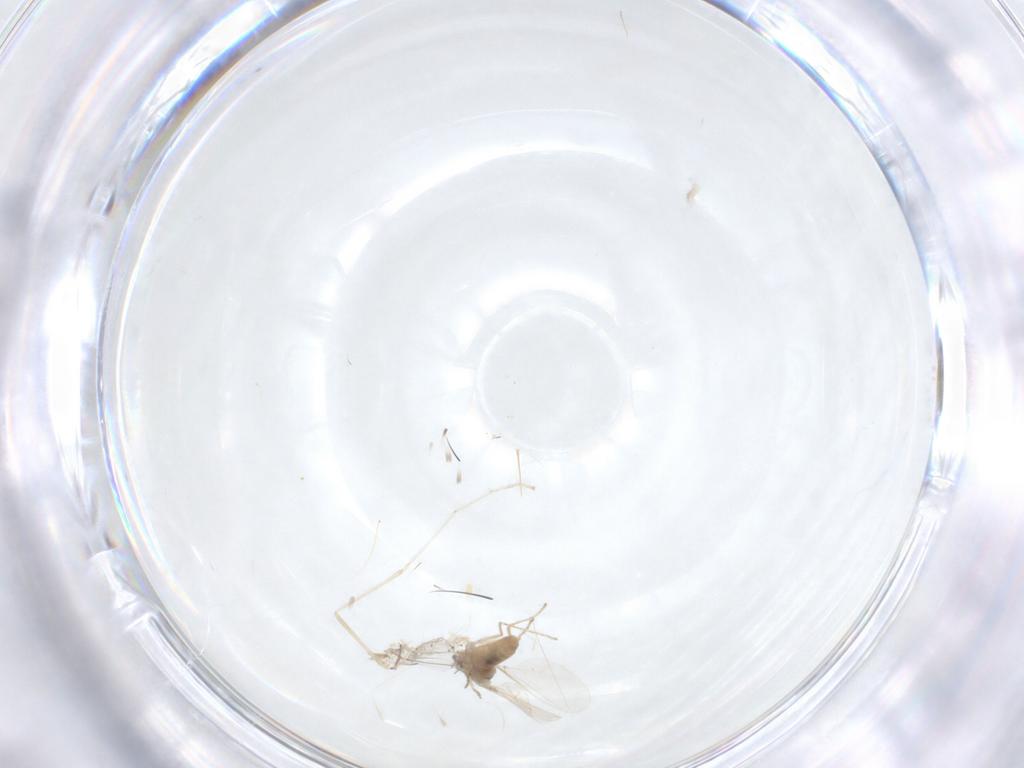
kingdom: Animalia
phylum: Arthropoda
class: Insecta
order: Diptera
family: Cecidomyiidae
